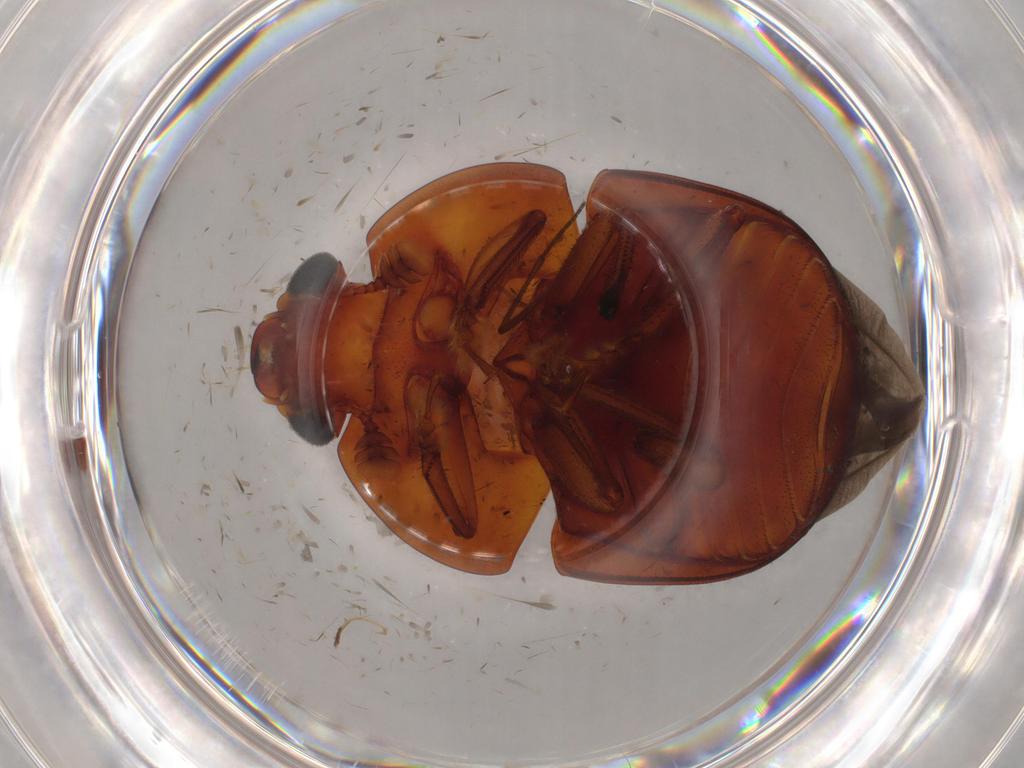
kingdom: Animalia
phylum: Arthropoda
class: Insecta
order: Coleoptera
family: Nitidulidae
